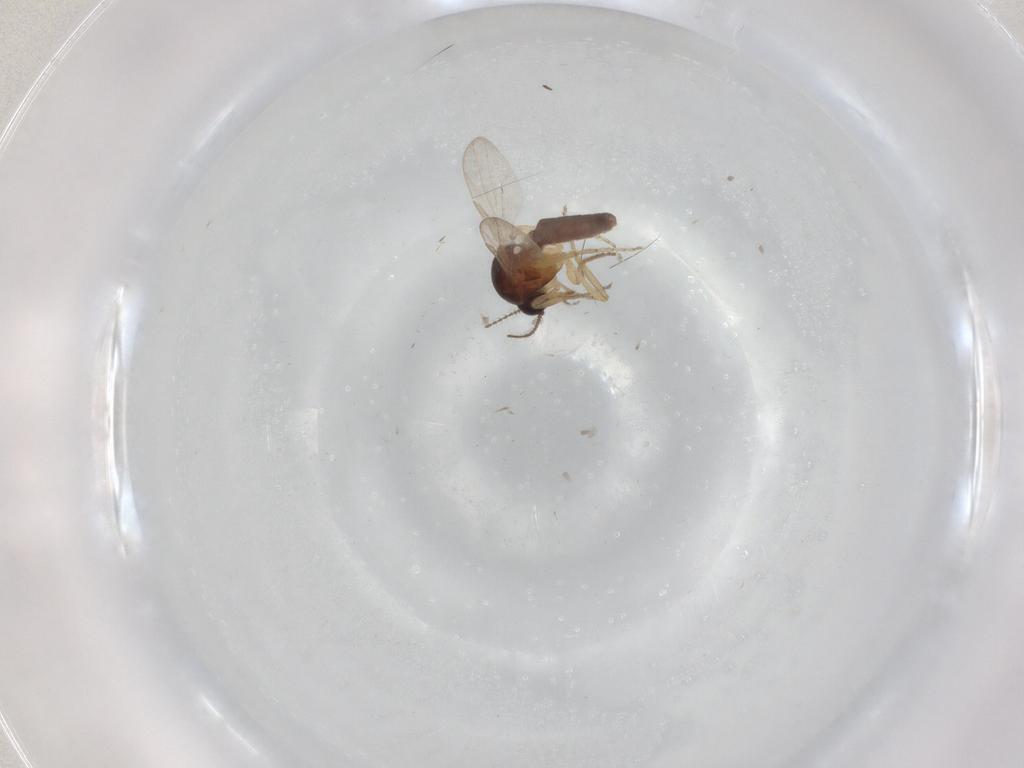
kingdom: Animalia
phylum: Arthropoda
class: Insecta
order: Diptera
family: Ceratopogonidae
